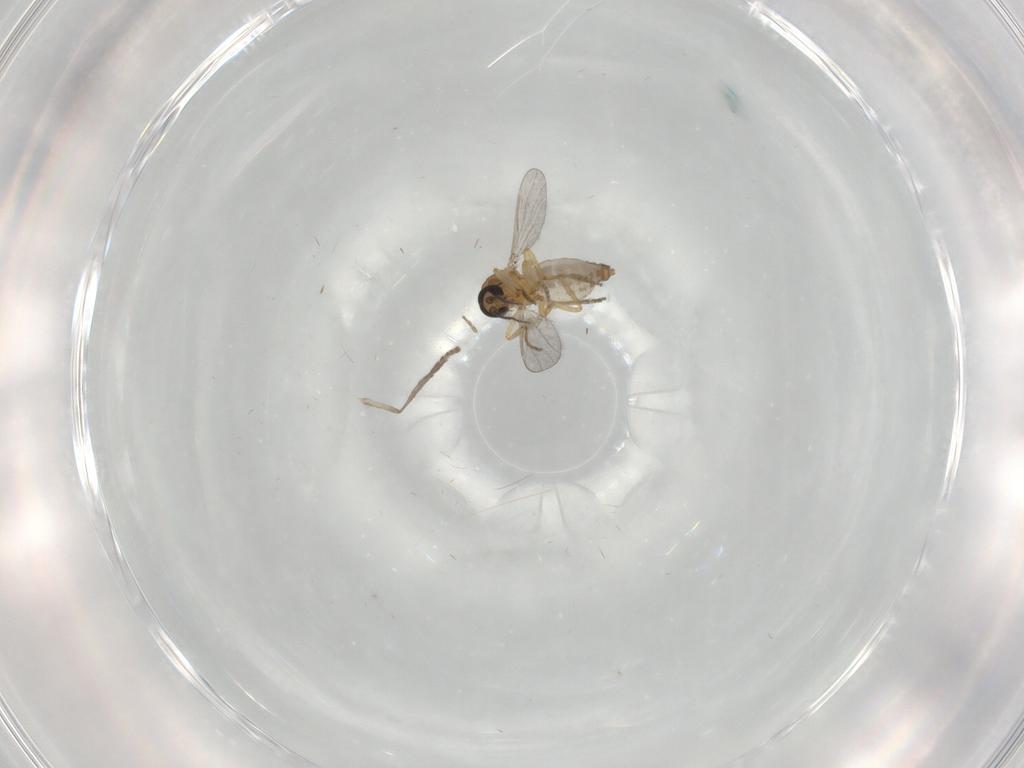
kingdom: Animalia
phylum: Arthropoda
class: Insecta
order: Diptera
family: Ceratopogonidae
